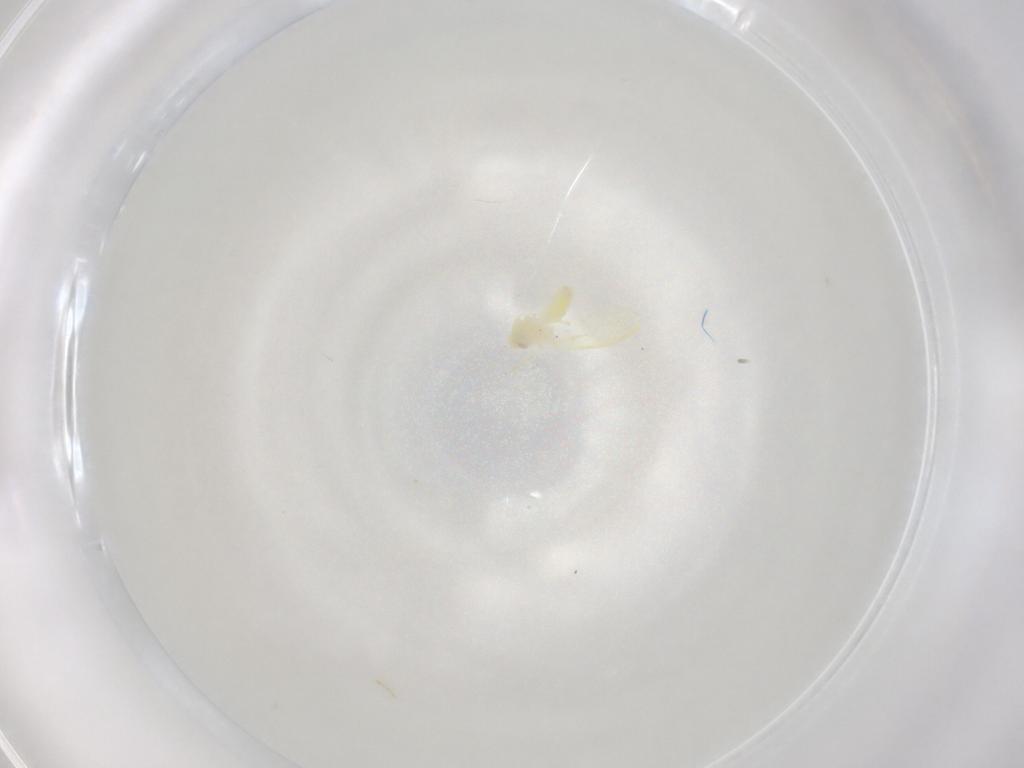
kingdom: Animalia
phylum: Arthropoda
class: Insecta
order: Hemiptera
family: Aleyrodidae
